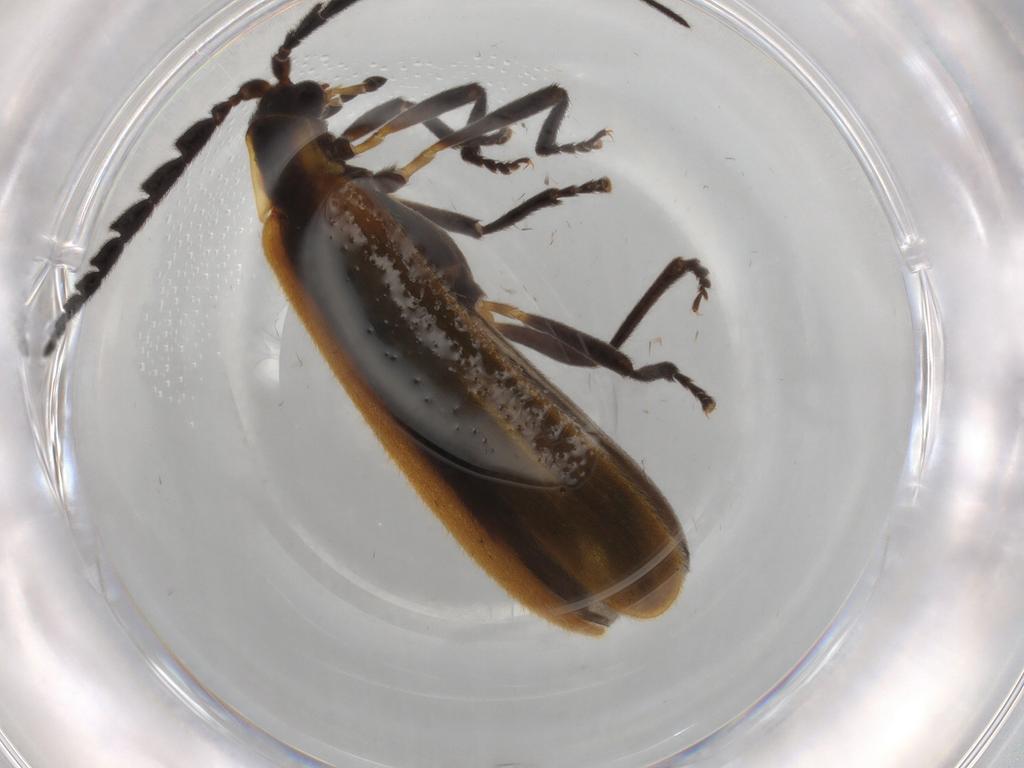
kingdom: Animalia
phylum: Arthropoda
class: Insecta
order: Coleoptera
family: Lycidae
